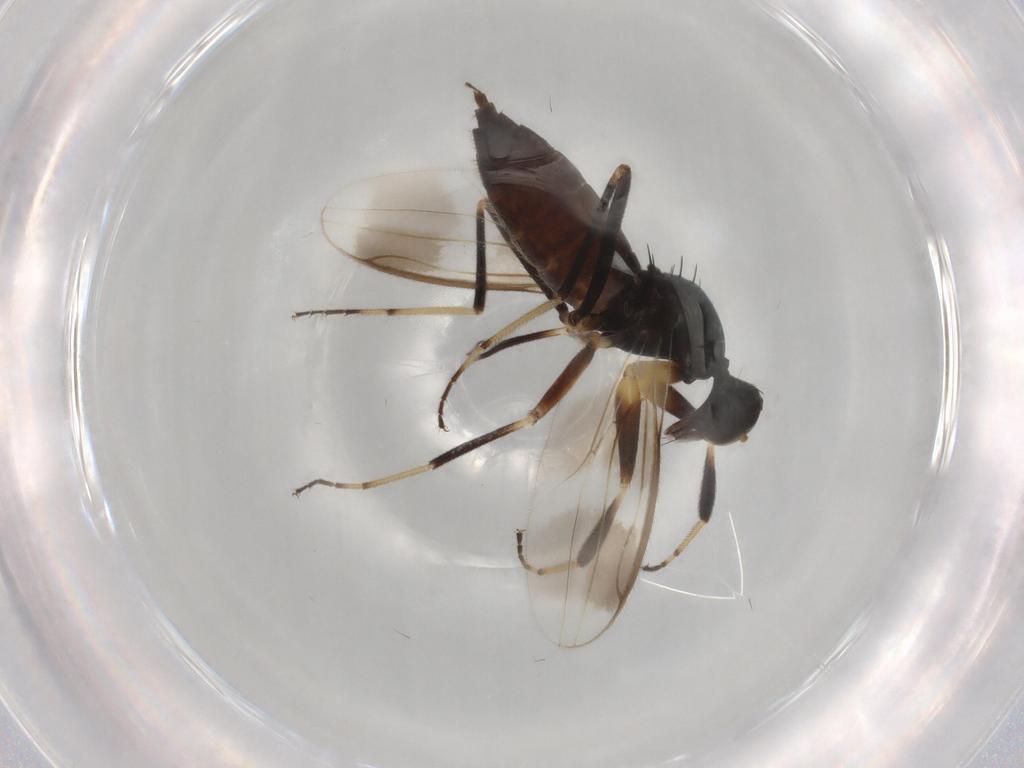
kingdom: Animalia
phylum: Arthropoda
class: Insecta
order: Diptera
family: Hybotidae
